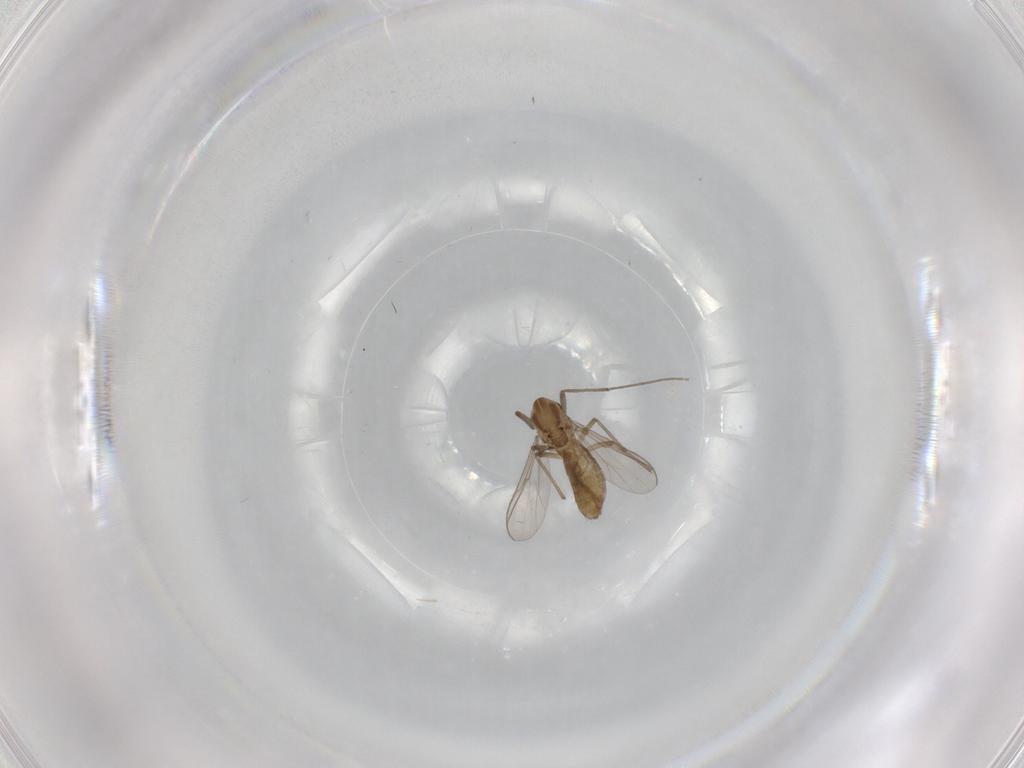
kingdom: Animalia
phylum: Arthropoda
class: Insecta
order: Diptera
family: Chironomidae
